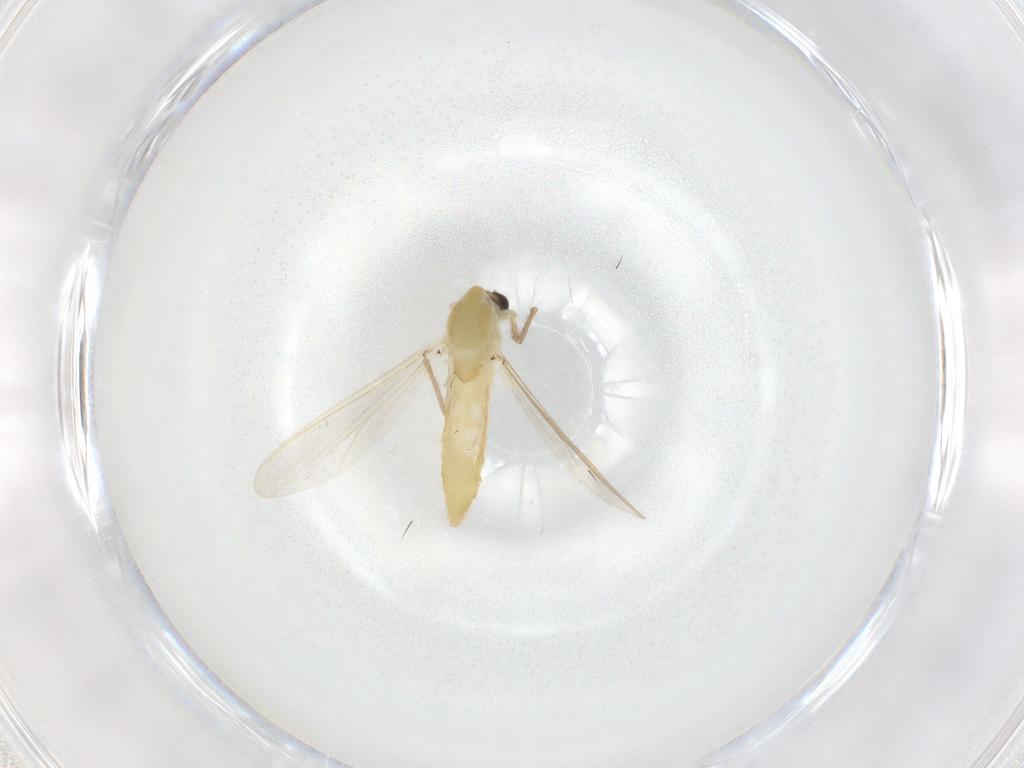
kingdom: Animalia
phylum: Arthropoda
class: Insecta
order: Diptera
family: Chironomidae
